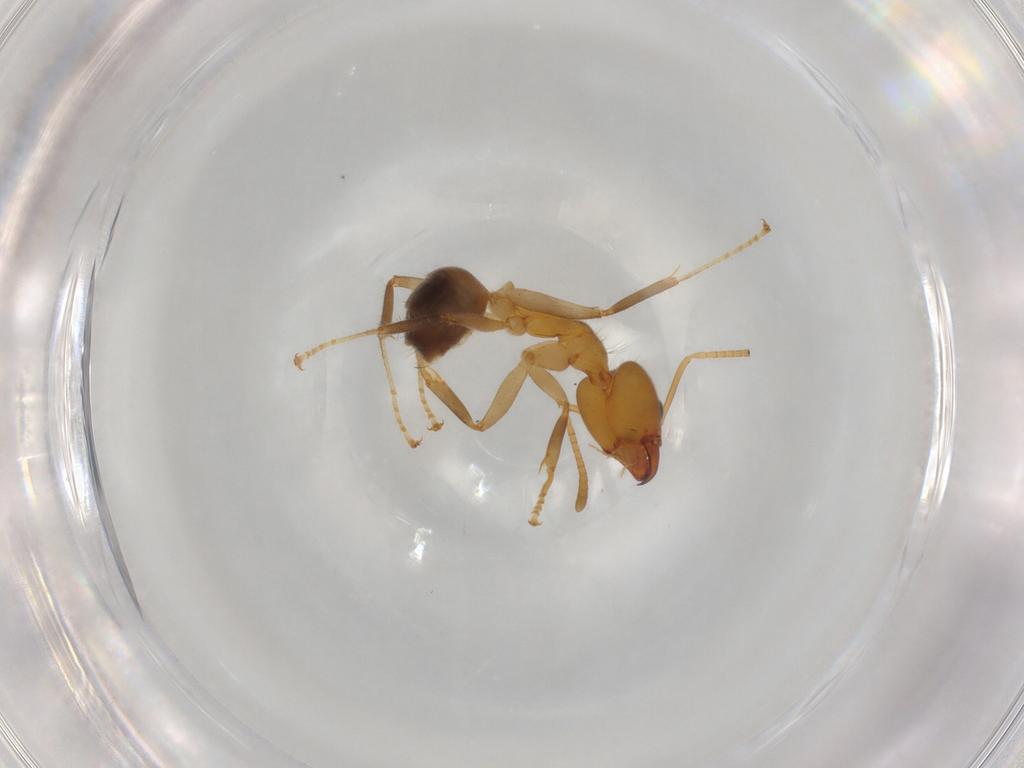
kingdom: Animalia
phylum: Arthropoda
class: Insecta
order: Hymenoptera
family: Formicidae
